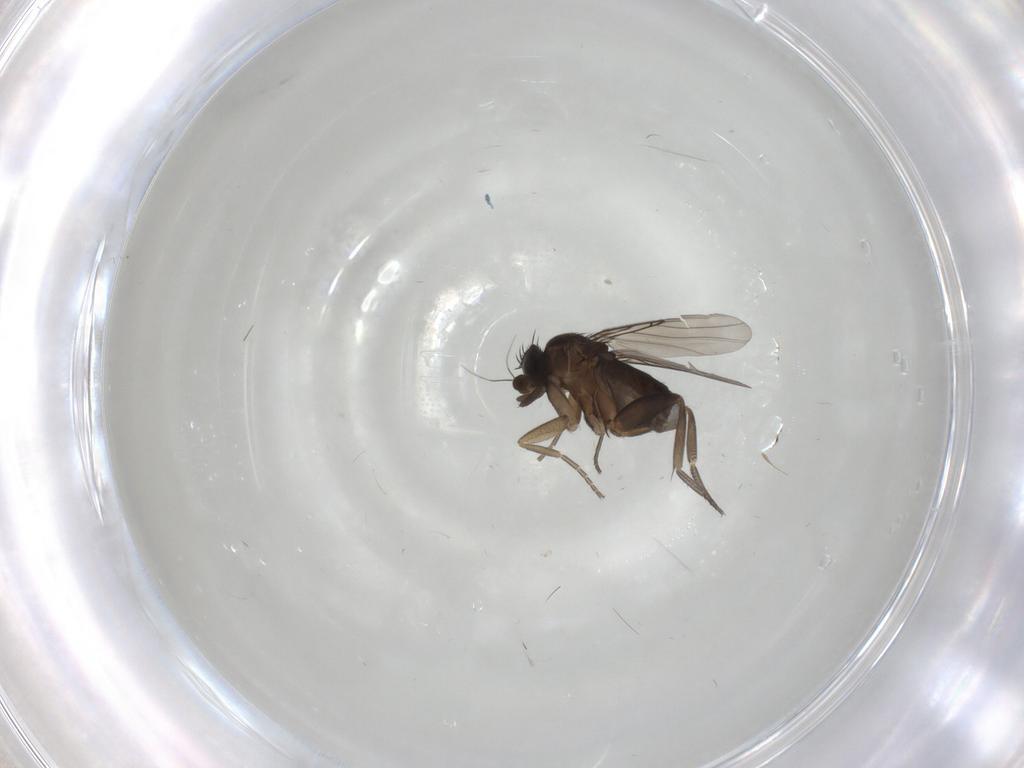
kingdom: Animalia
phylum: Arthropoda
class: Insecta
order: Diptera
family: Phoridae
